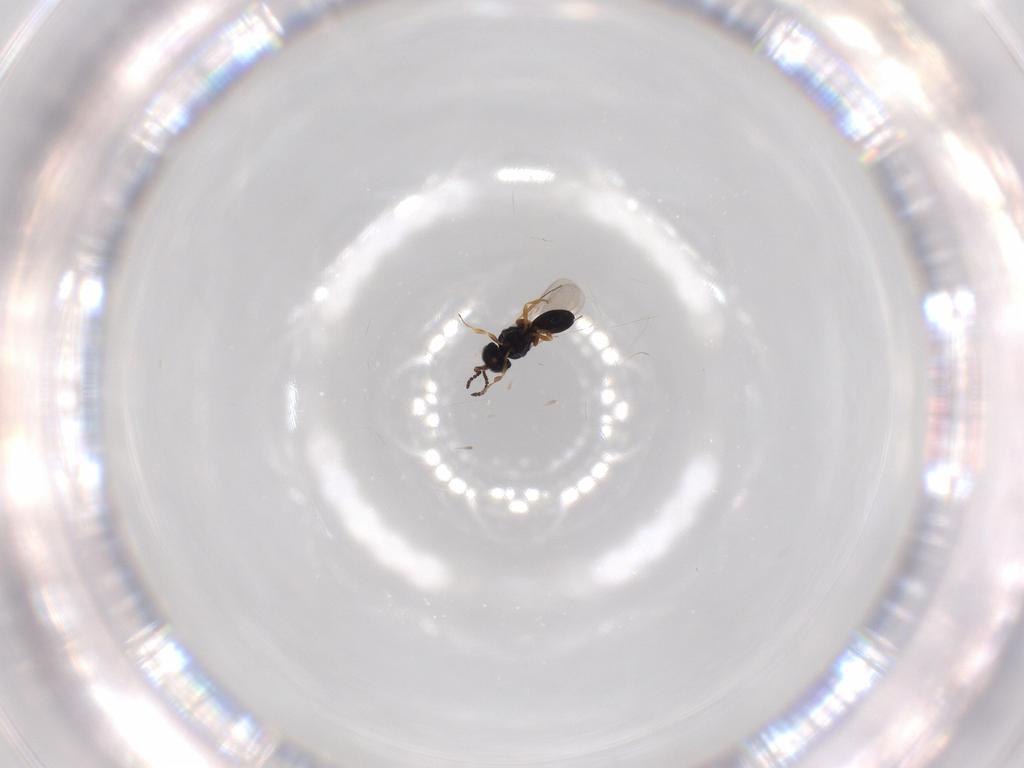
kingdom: Animalia
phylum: Arthropoda
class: Insecta
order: Hymenoptera
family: Scelionidae
